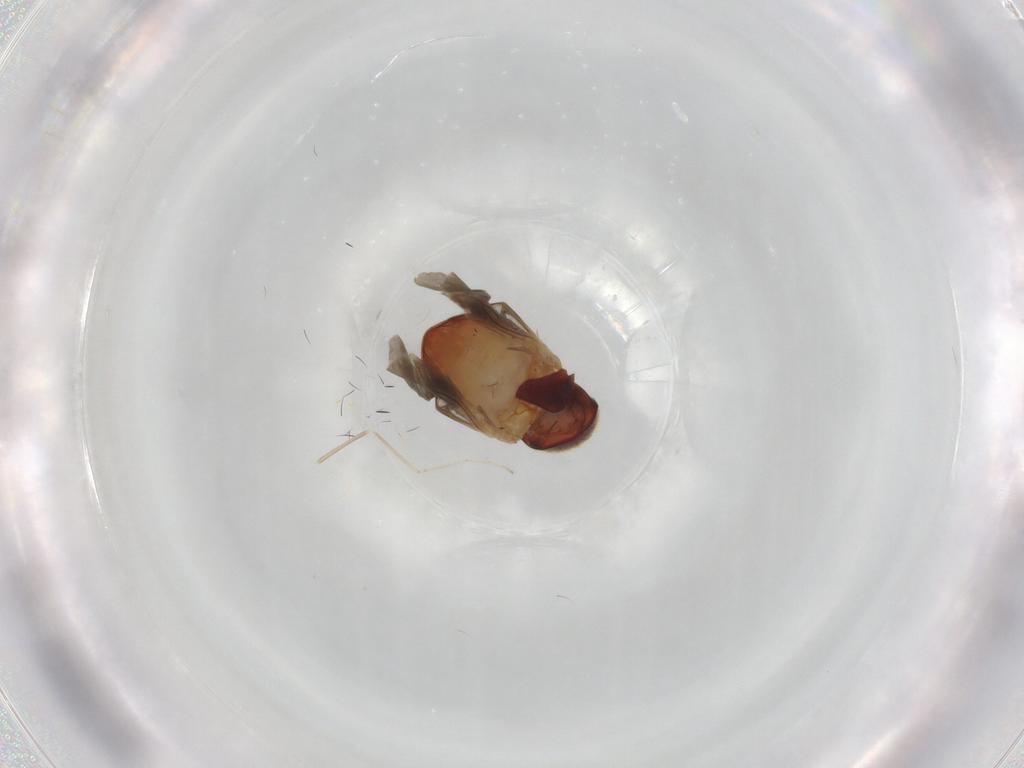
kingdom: Animalia
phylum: Arthropoda
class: Insecta
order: Coleoptera
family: Ptinidae
